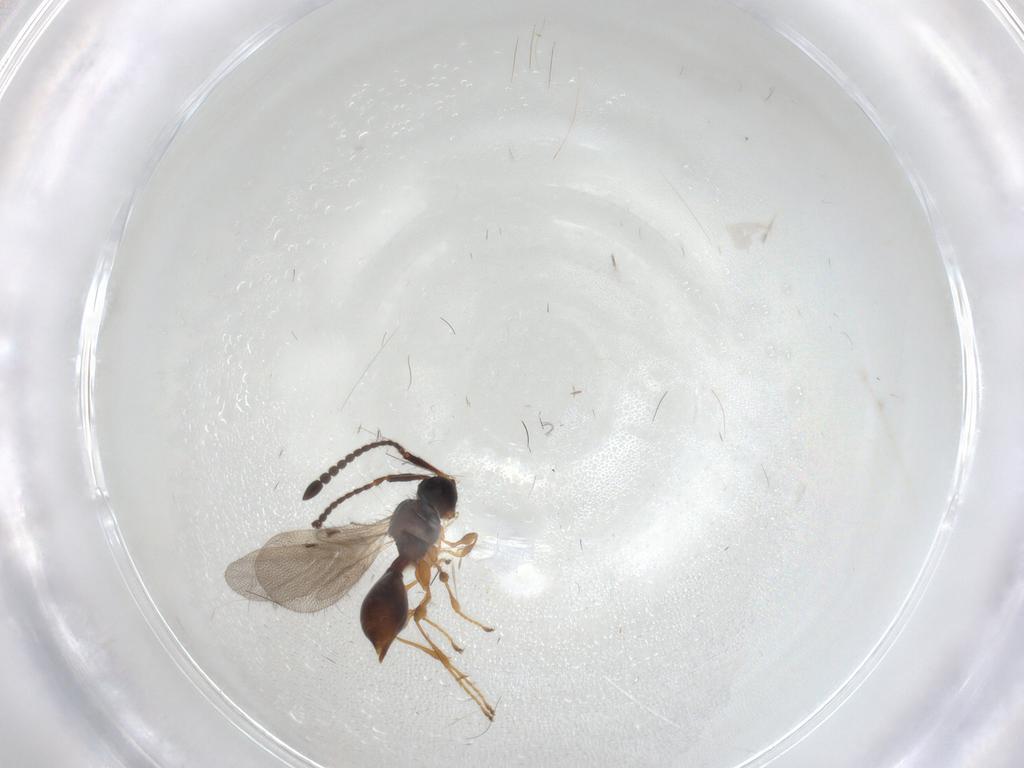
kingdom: Animalia
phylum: Arthropoda
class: Insecta
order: Hymenoptera
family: Diapriidae
